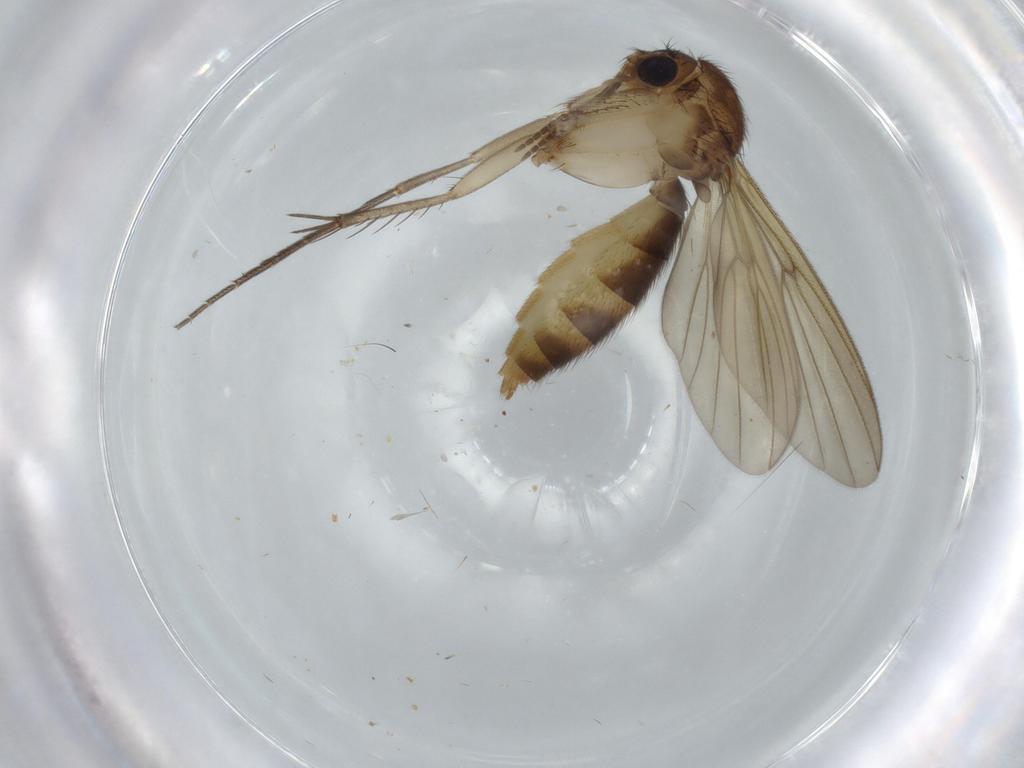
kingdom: Animalia
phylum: Arthropoda
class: Insecta
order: Diptera
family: Mycetophilidae
